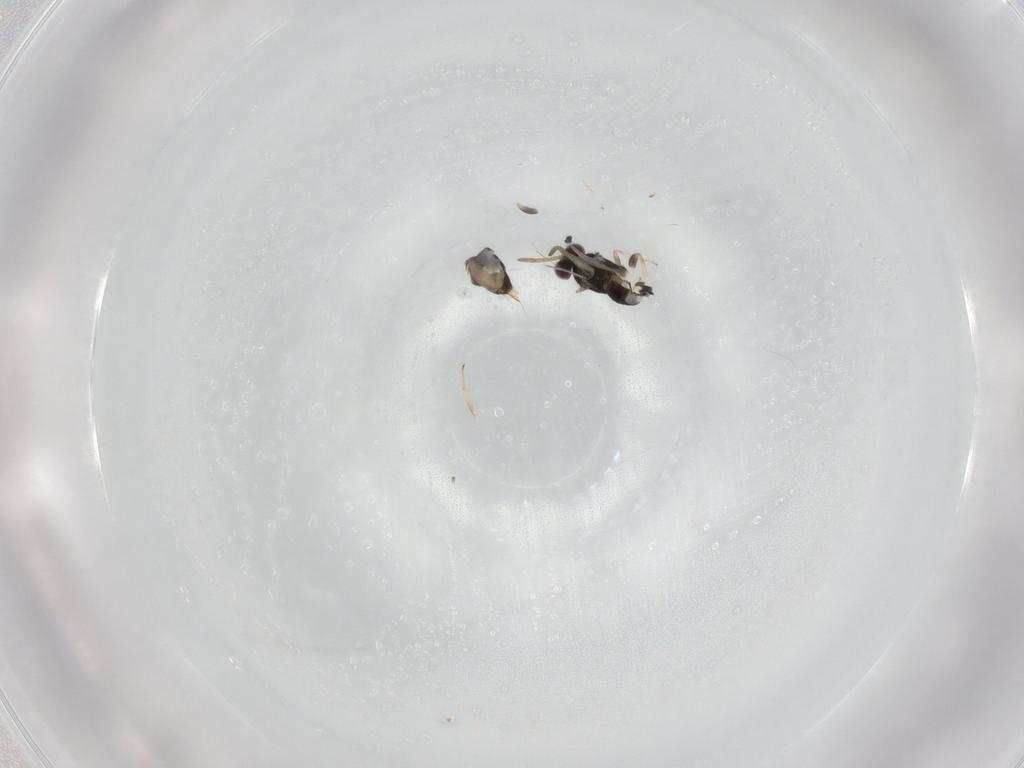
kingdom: Animalia
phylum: Arthropoda
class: Insecta
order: Hymenoptera
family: Aphelinidae
